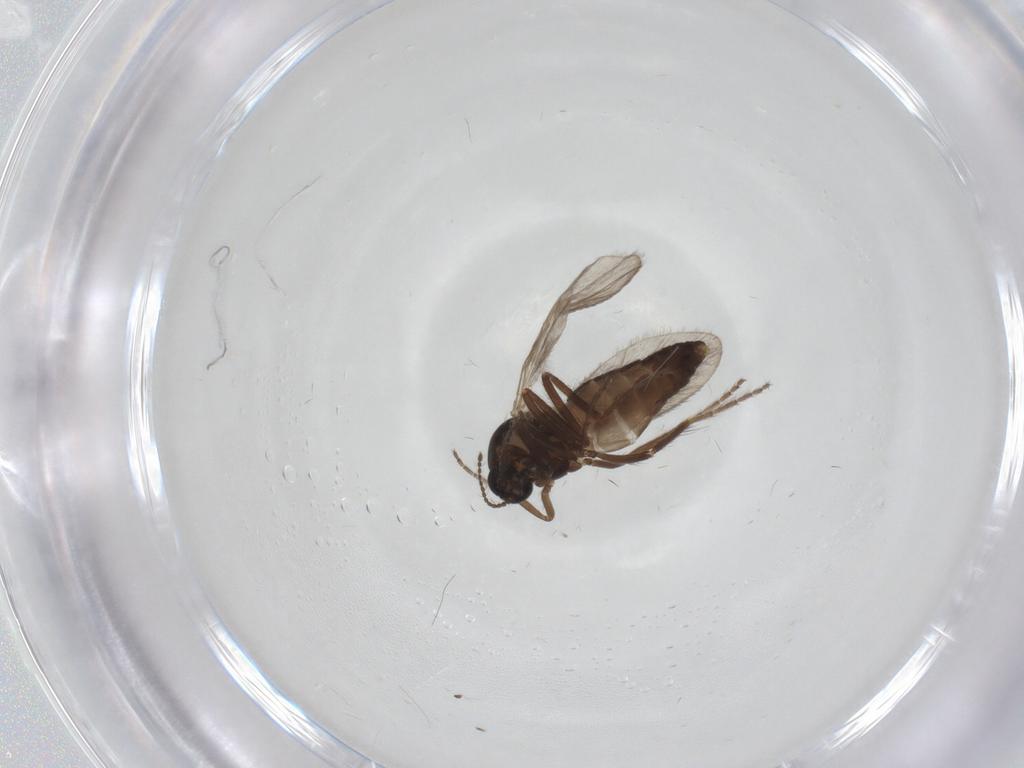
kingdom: Animalia
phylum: Arthropoda
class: Insecta
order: Diptera
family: Ceratopogonidae
